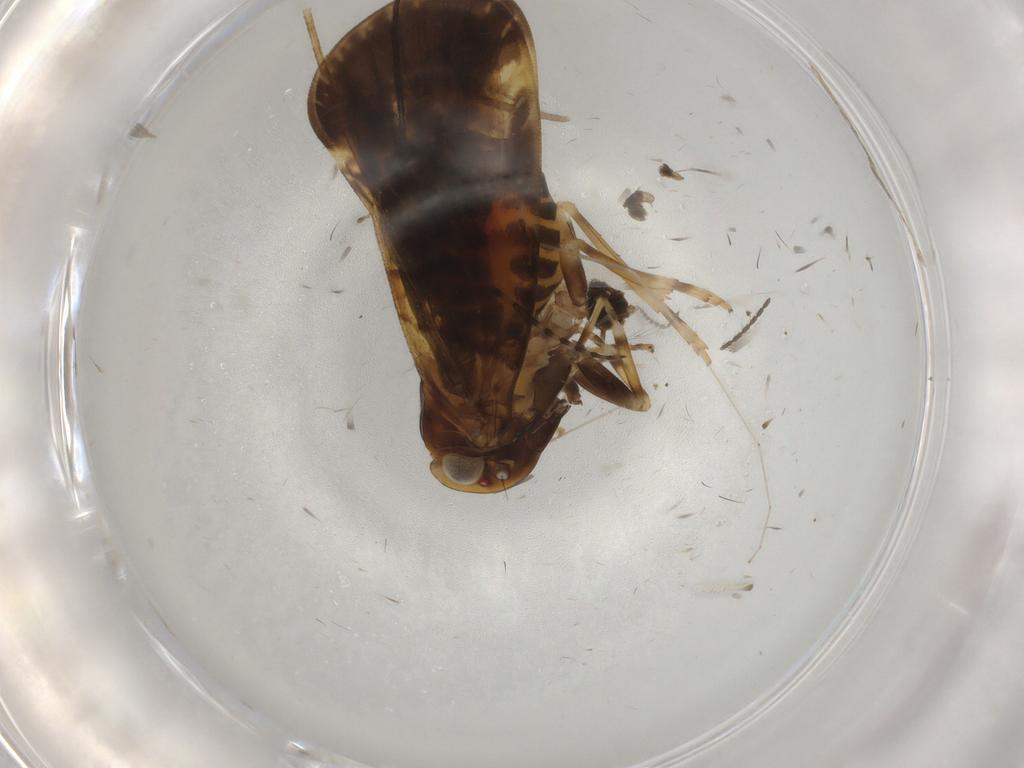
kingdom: Animalia
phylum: Arthropoda
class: Insecta
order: Hemiptera
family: Cixiidae
